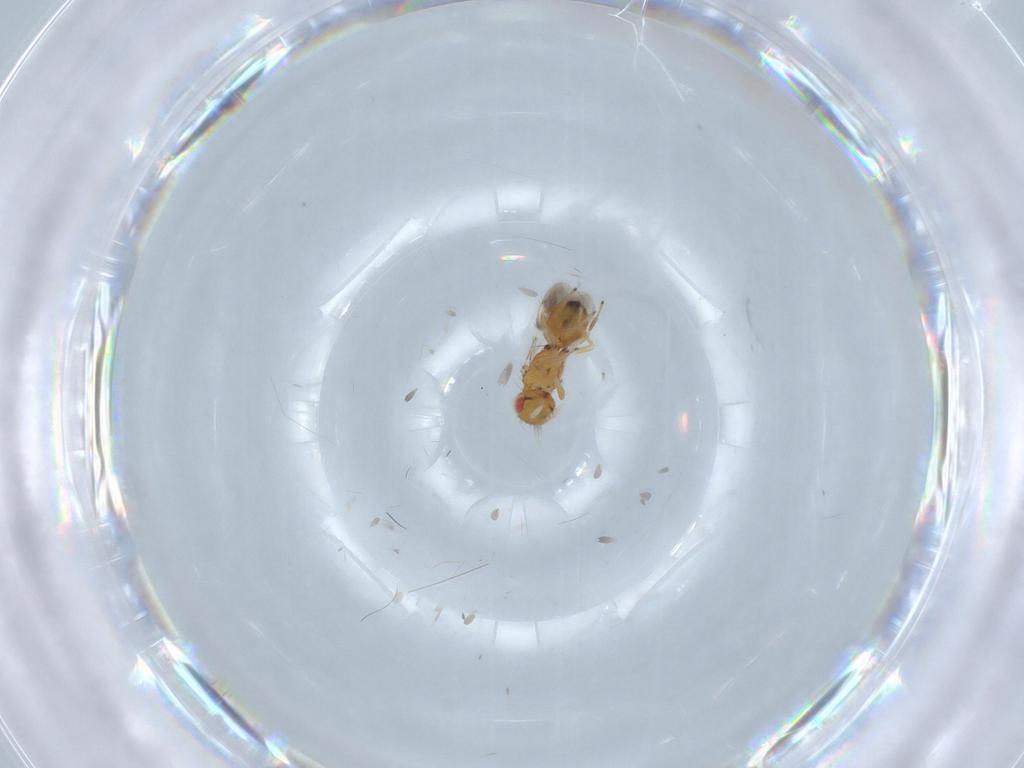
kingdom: Animalia
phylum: Arthropoda
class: Insecta
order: Hymenoptera
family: Eulophidae
